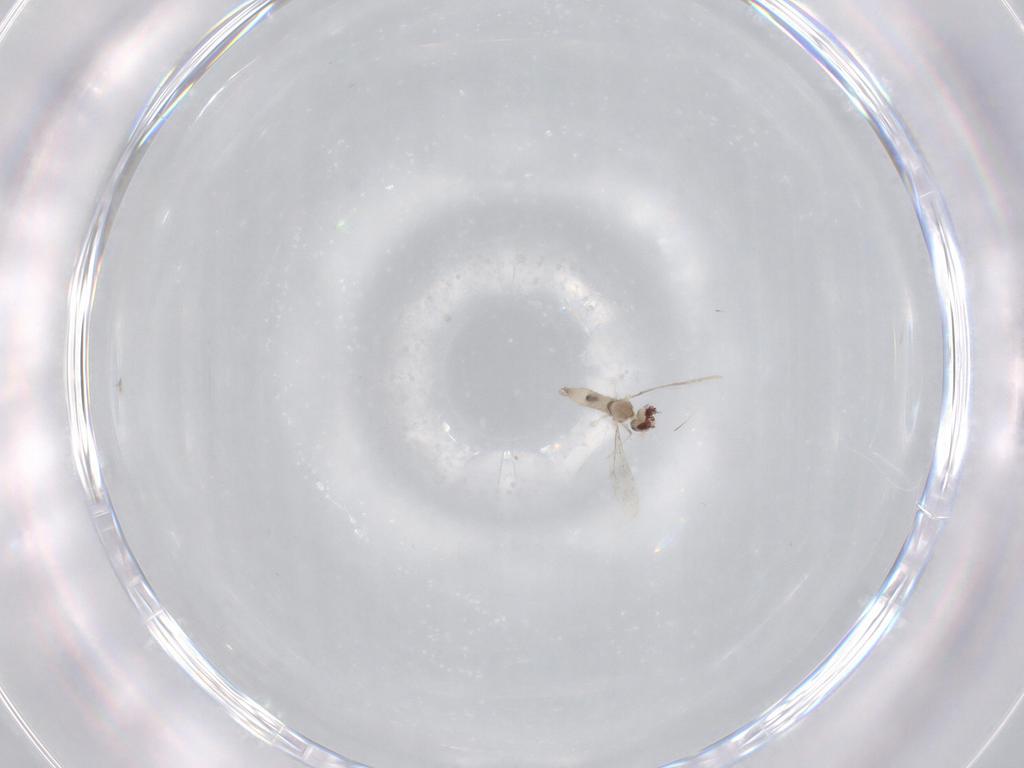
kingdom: Animalia
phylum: Arthropoda
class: Insecta
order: Diptera
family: Cecidomyiidae
